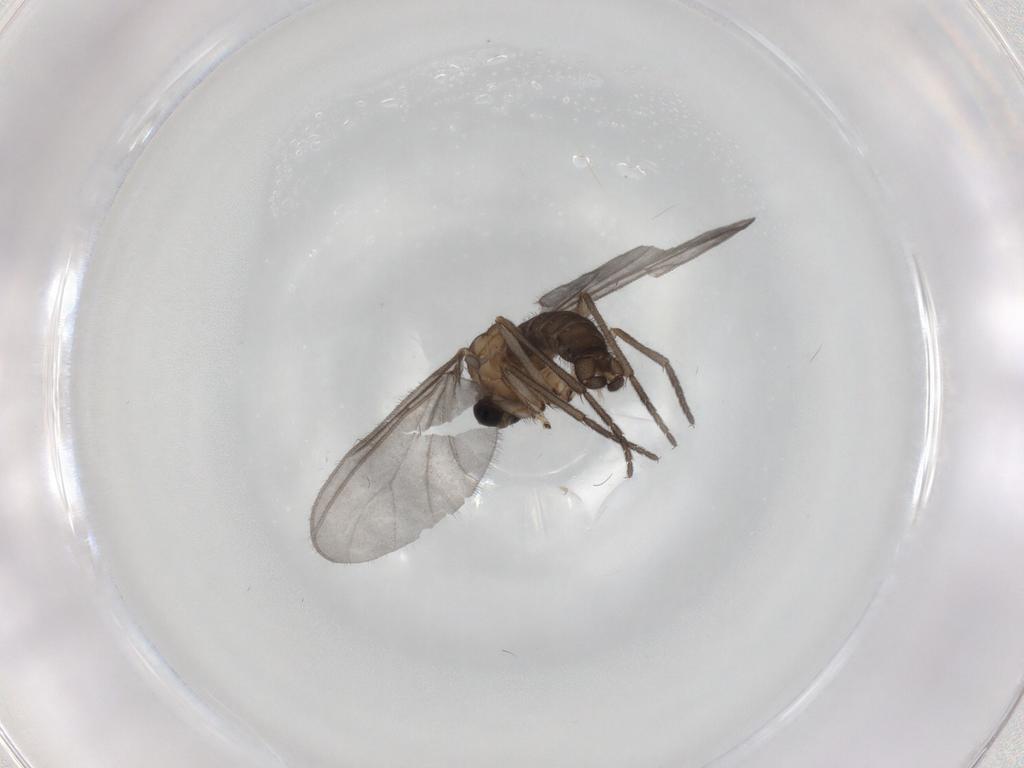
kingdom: Animalia
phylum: Arthropoda
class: Insecta
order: Diptera
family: Sciaridae
